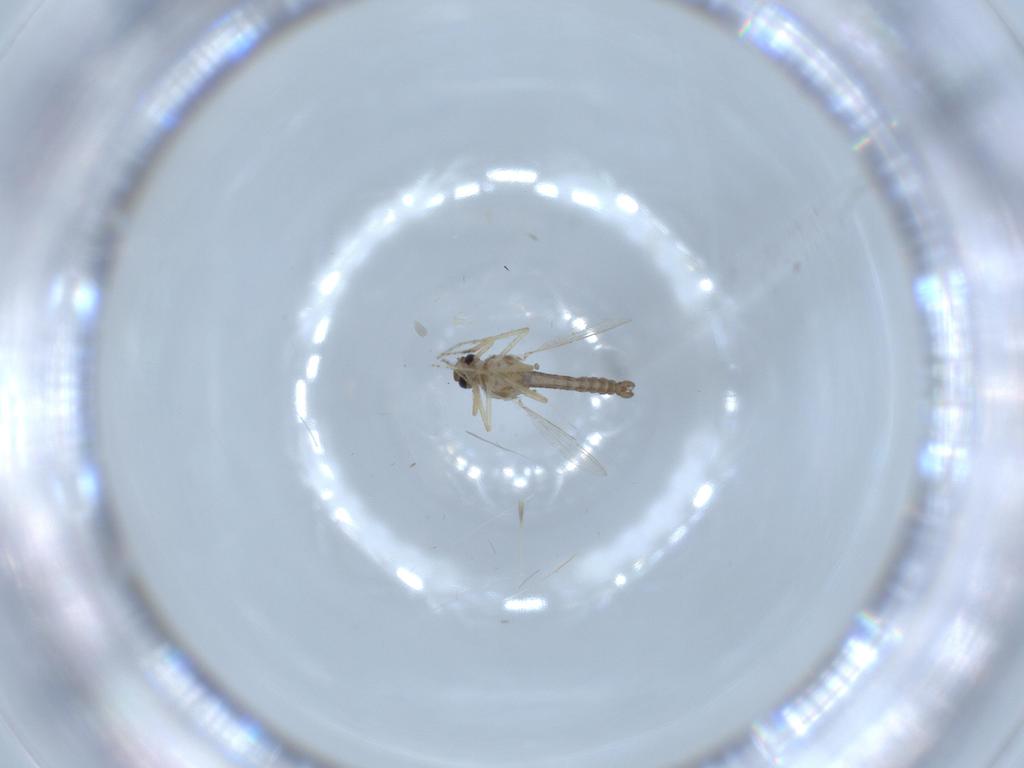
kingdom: Animalia
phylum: Arthropoda
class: Insecta
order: Diptera
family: Ceratopogonidae
